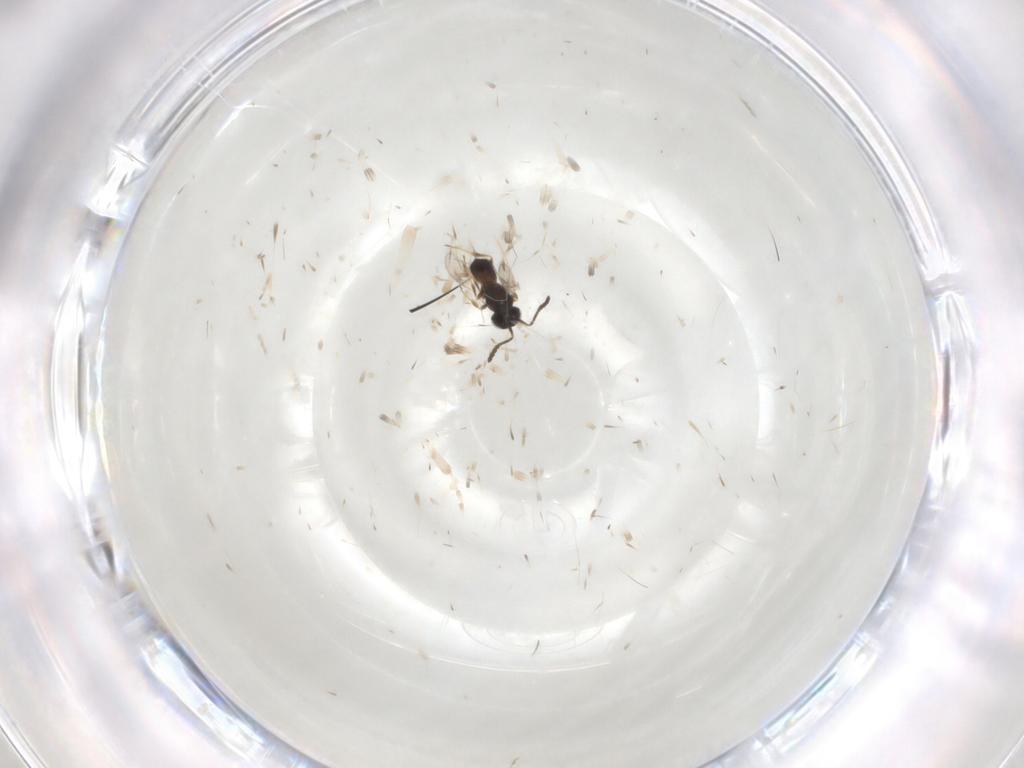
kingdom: Animalia
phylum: Arthropoda
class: Insecta
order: Hymenoptera
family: Scelionidae
